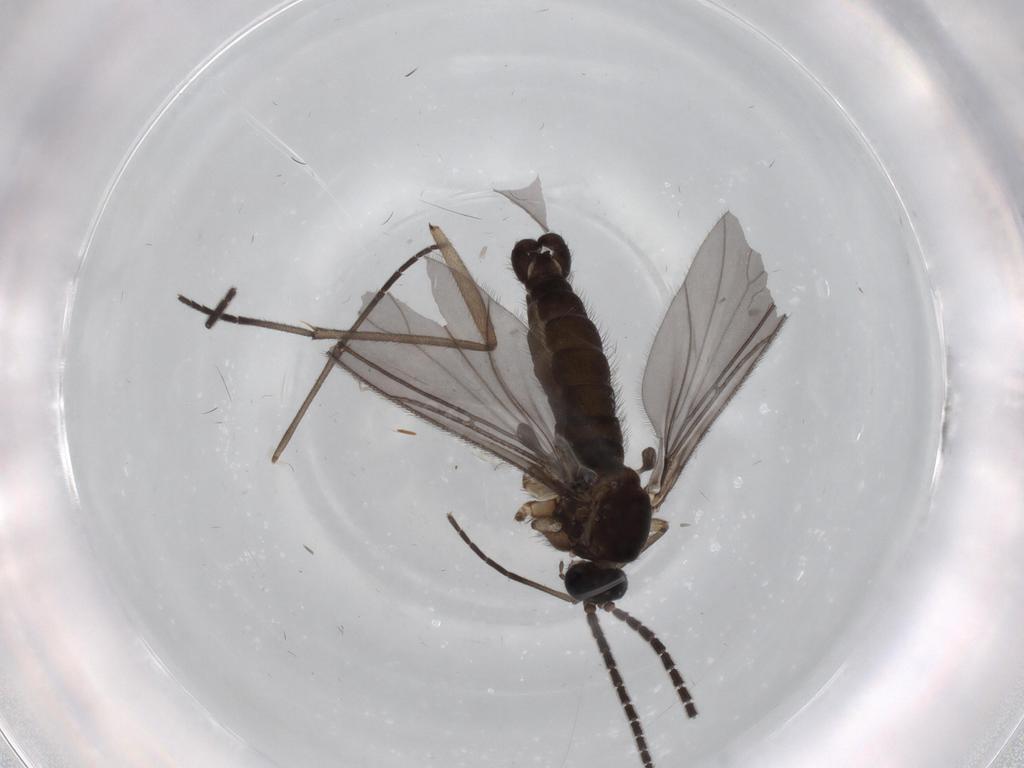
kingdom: Animalia
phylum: Arthropoda
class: Insecta
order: Diptera
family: Sciaridae
